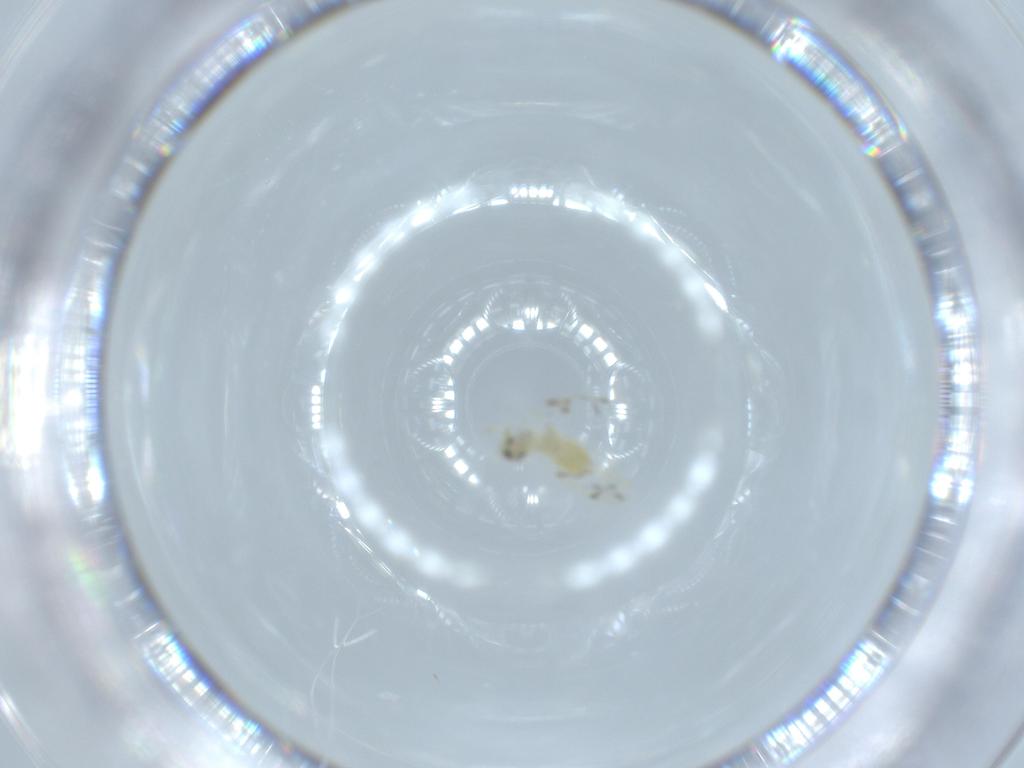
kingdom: Animalia
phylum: Arthropoda
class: Insecta
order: Hemiptera
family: Aleyrodidae
